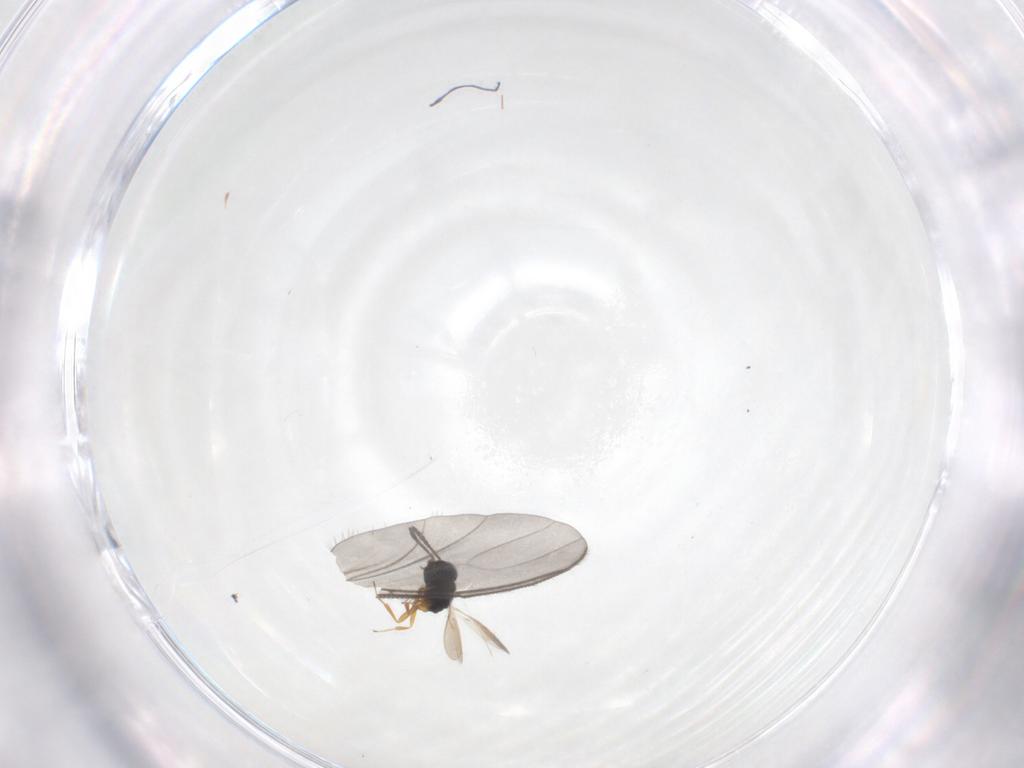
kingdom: Animalia
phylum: Arthropoda
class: Insecta
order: Hymenoptera
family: Scelionidae
